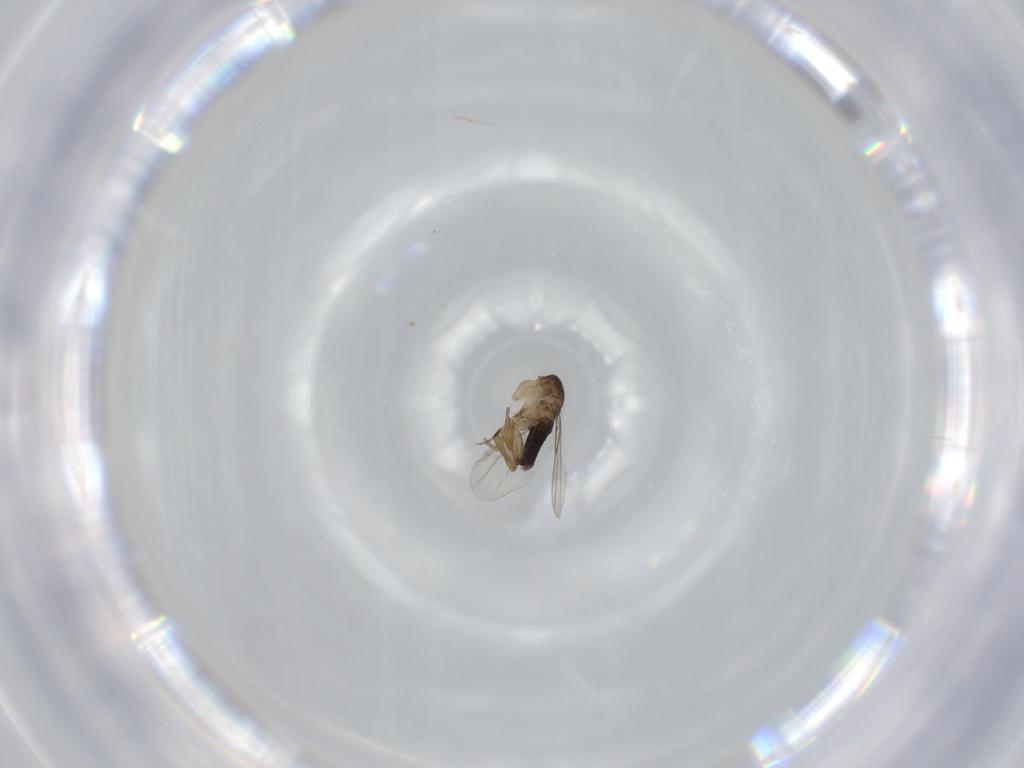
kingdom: Animalia
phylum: Arthropoda
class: Insecta
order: Diptera
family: Phoridae
